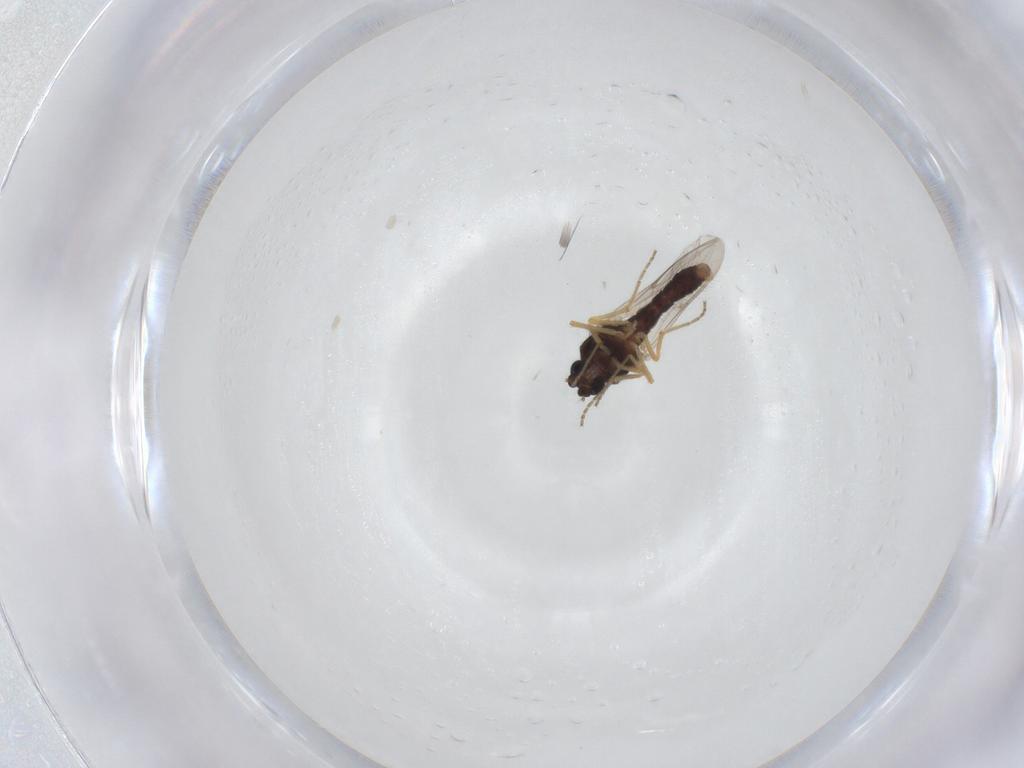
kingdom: Animalia
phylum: Arthropoda
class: Insecta
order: Diptera
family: Ceratopogonidae
